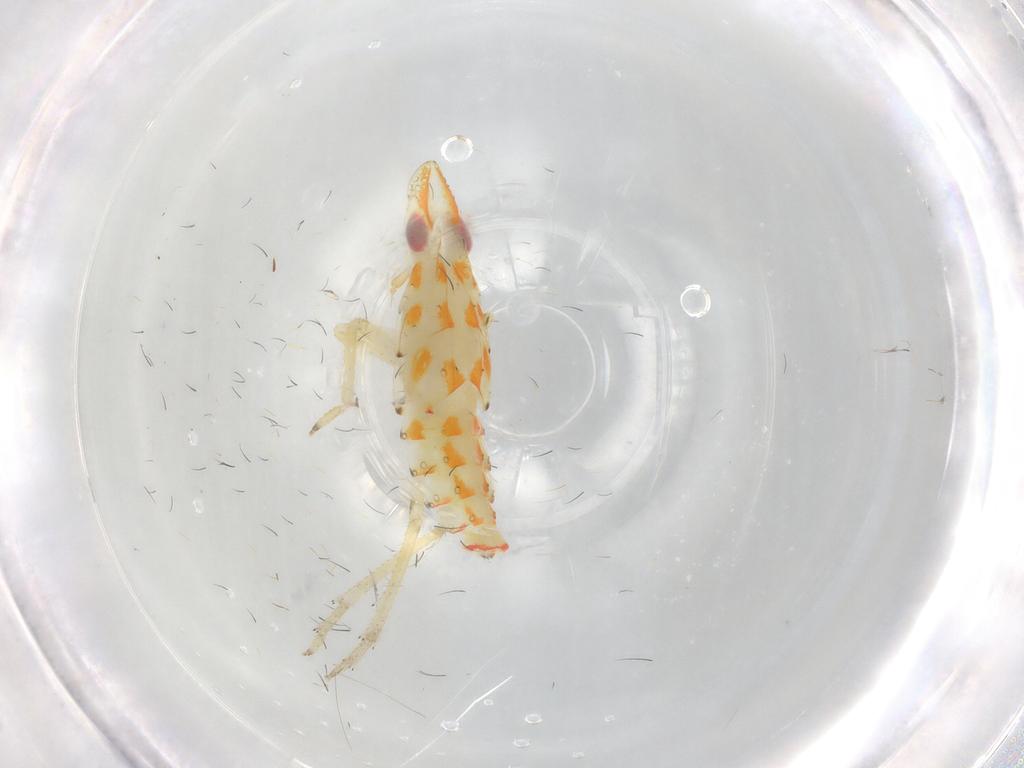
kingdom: Animalia
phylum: Arthropoda
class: Insecta
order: Hemiptera
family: Tropiduchidae
